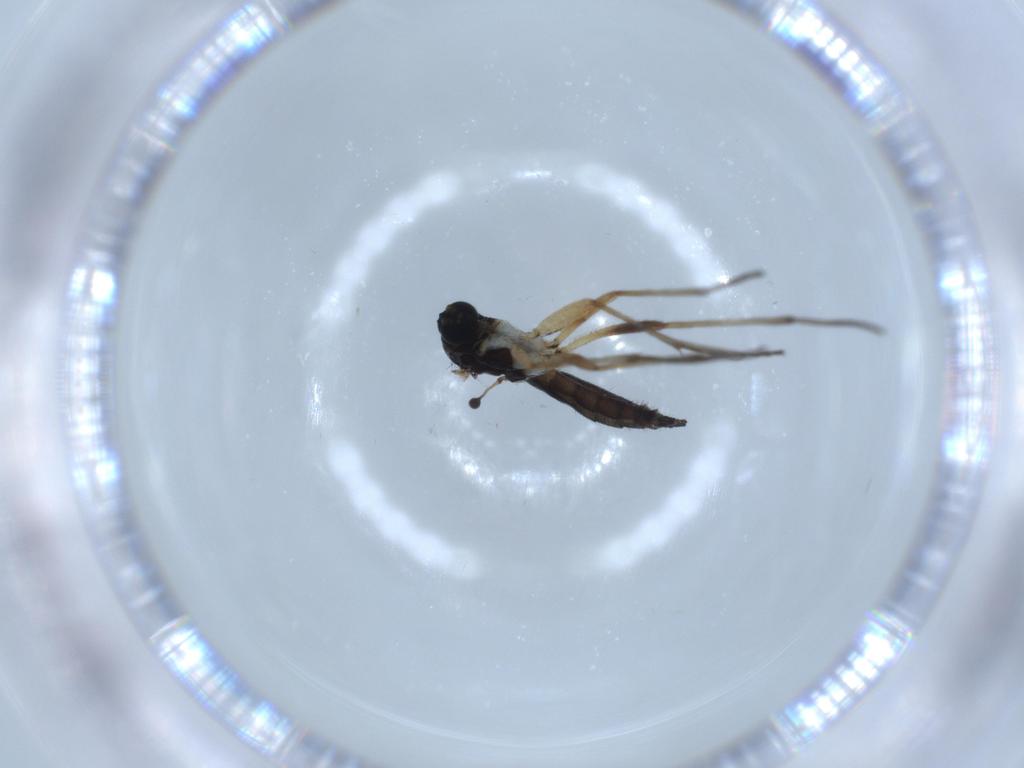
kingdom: Animalia
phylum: Arthropoda
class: Insecta
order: Diptera
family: Sciaridae
